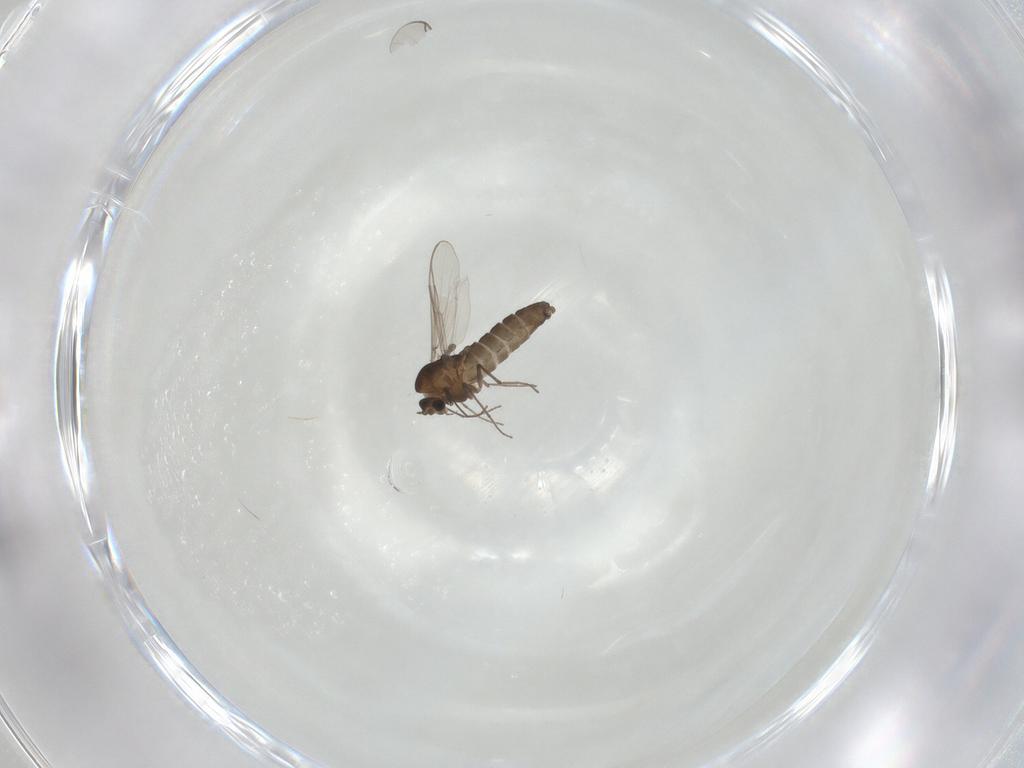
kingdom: Animalia
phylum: Arthropoda
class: Insecta
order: Diptera
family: Chironomidae
